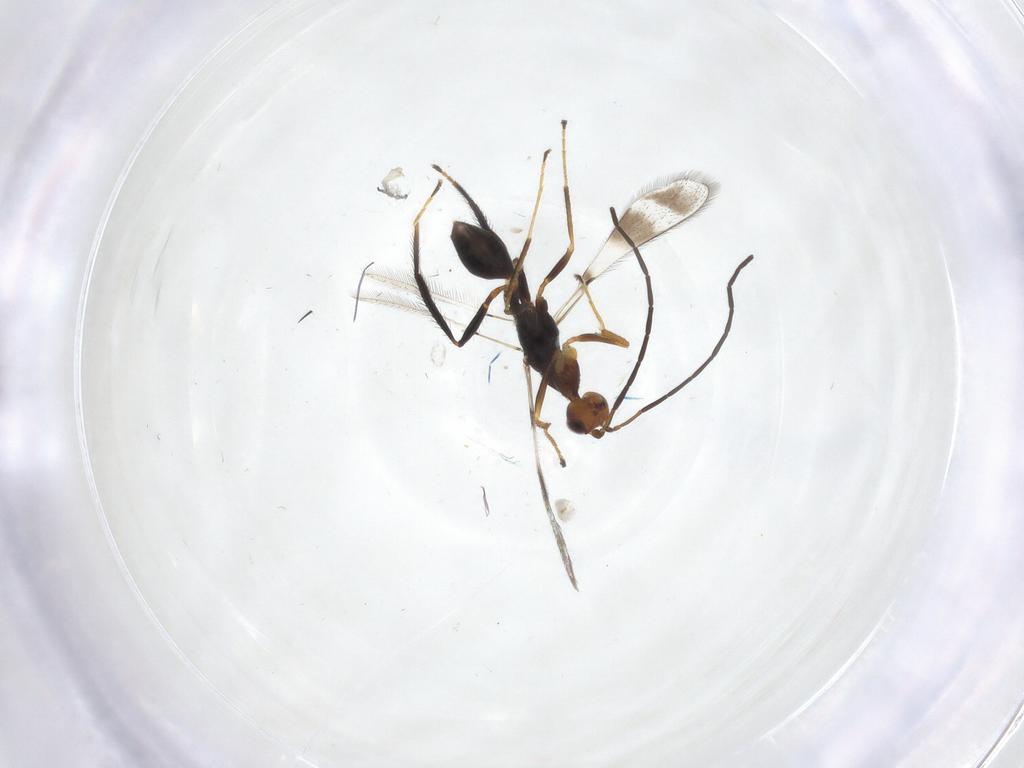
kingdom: Animalia
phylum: Arthropoda
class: Insecta
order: Hymenoptera
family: Mymaridae
